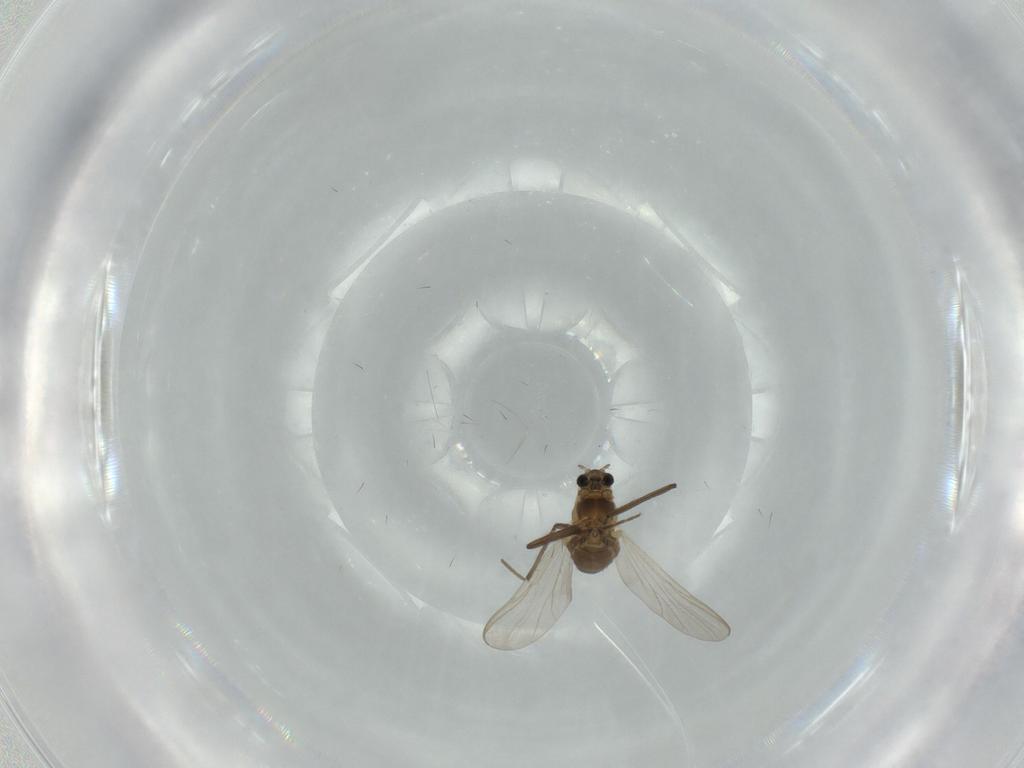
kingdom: Animalia
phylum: Arthropoda
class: Insecta
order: Diptera
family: Chironomidae
